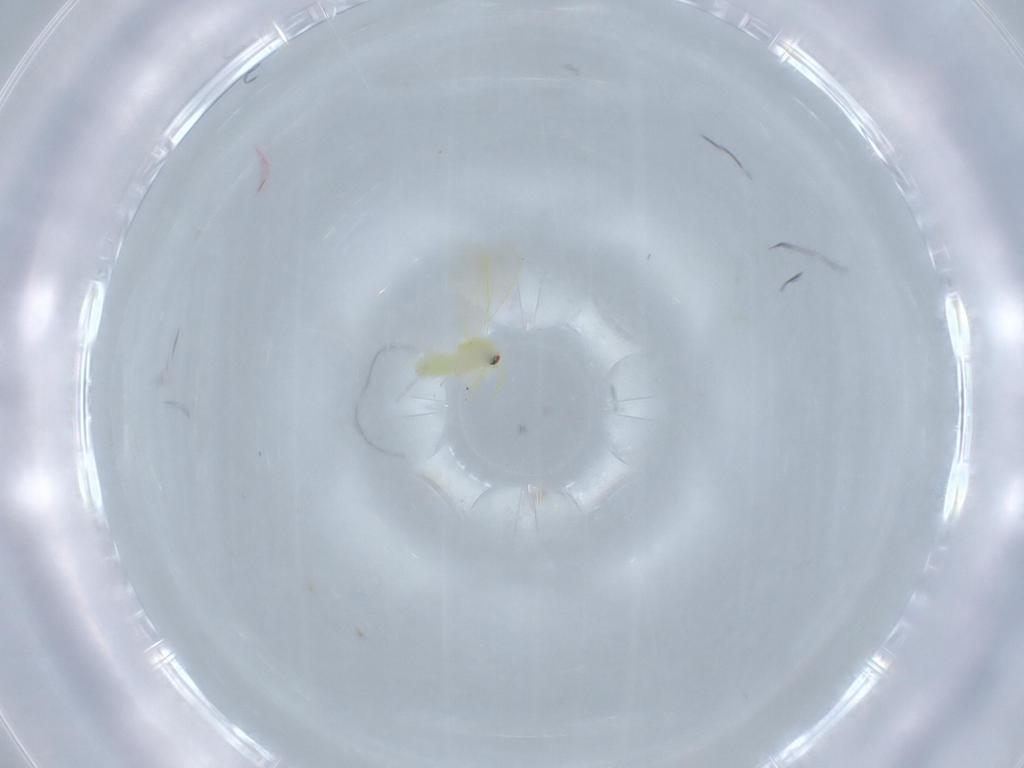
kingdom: Animalia
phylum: Arthropoda
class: Insecta
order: Hemiptera
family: Aleyrodidae
